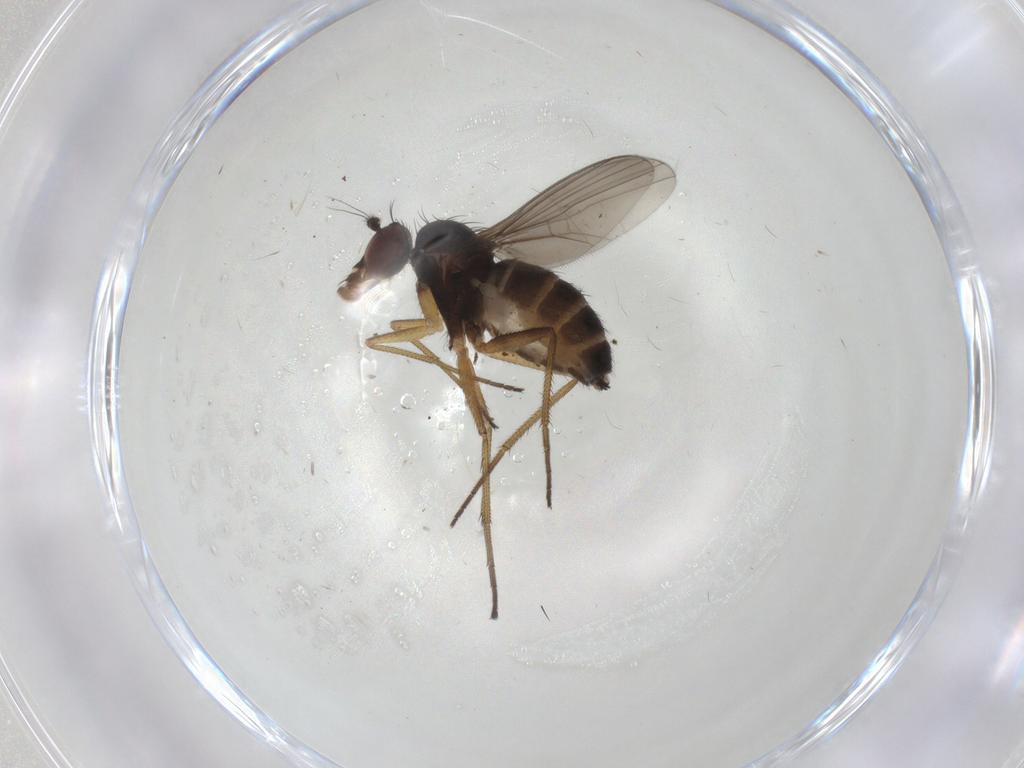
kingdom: Animalia
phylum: Arthropoda
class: Insecta
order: Diptera
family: Dolichopodidae
